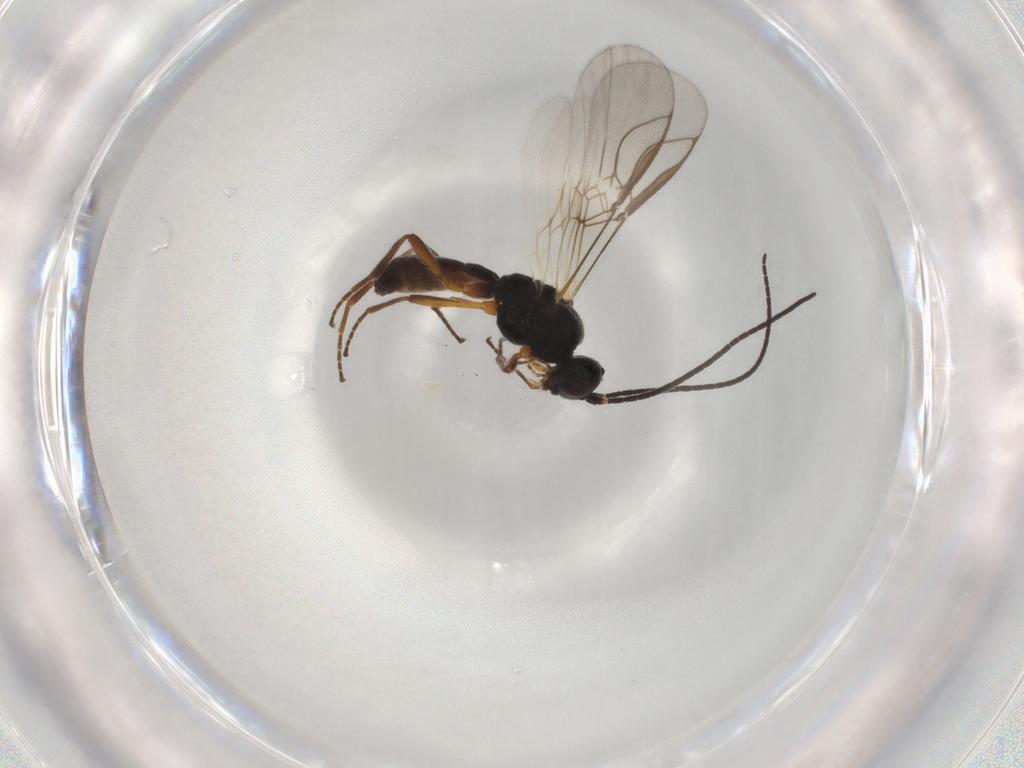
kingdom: Animalia
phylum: Arthropoda
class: Insecta
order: Hymenoptera
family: Braconidae
